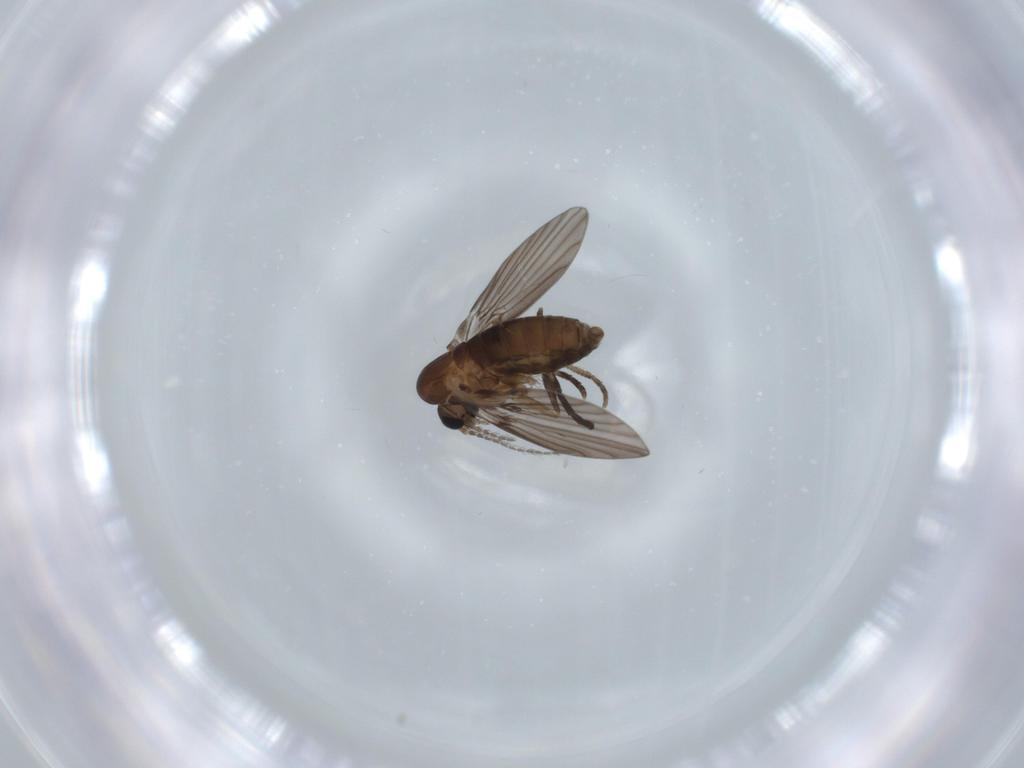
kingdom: Animalia
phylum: Arthropoda
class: Insecta
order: Diptera
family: Psychodidae
